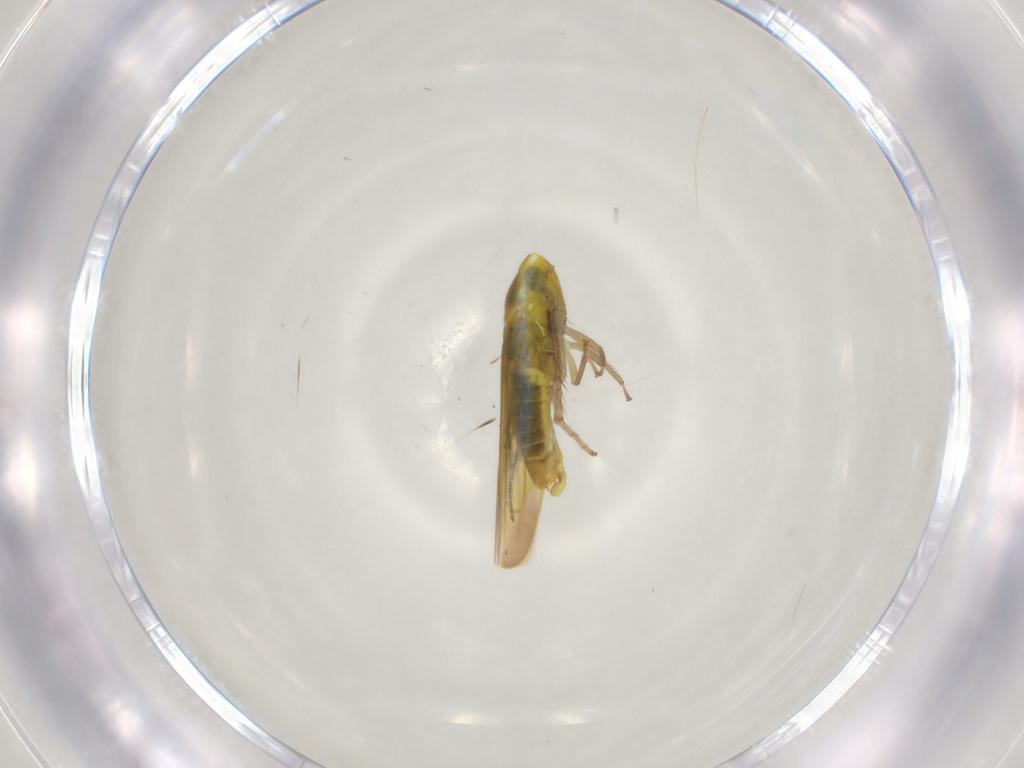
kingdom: Animalia
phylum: Arthropoda
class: Insecta
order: Hemiptera
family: Cicadellidae
